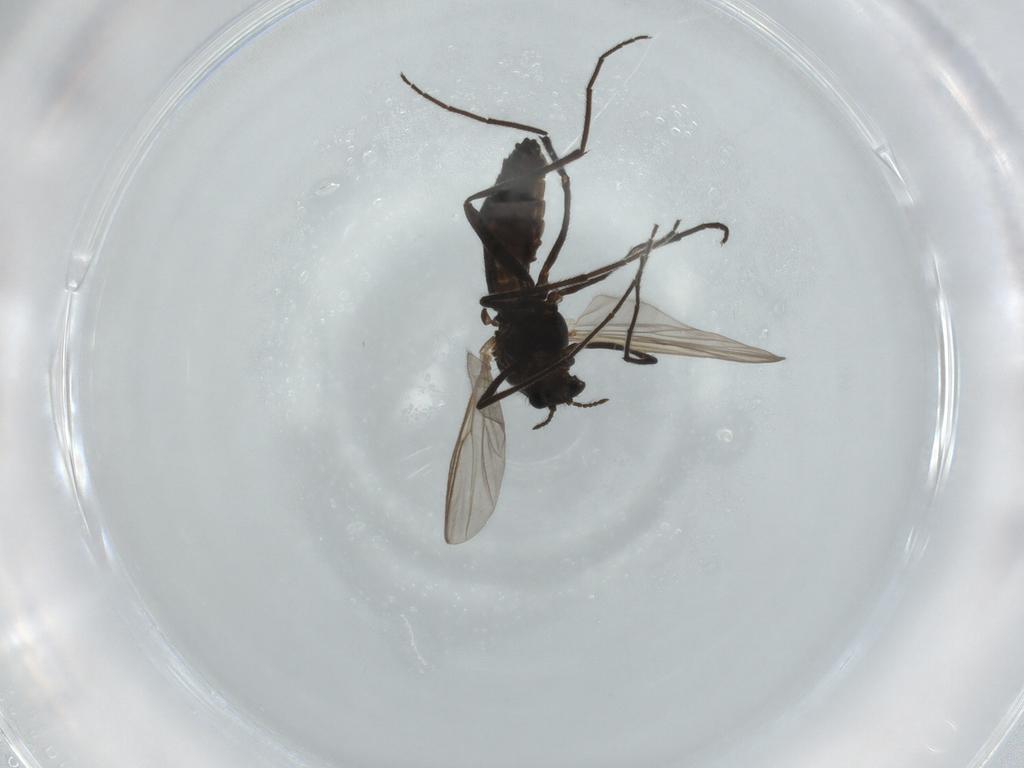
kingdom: Animalia
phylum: Arthropoda
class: Insecta
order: Diptera
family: Chironomidae
